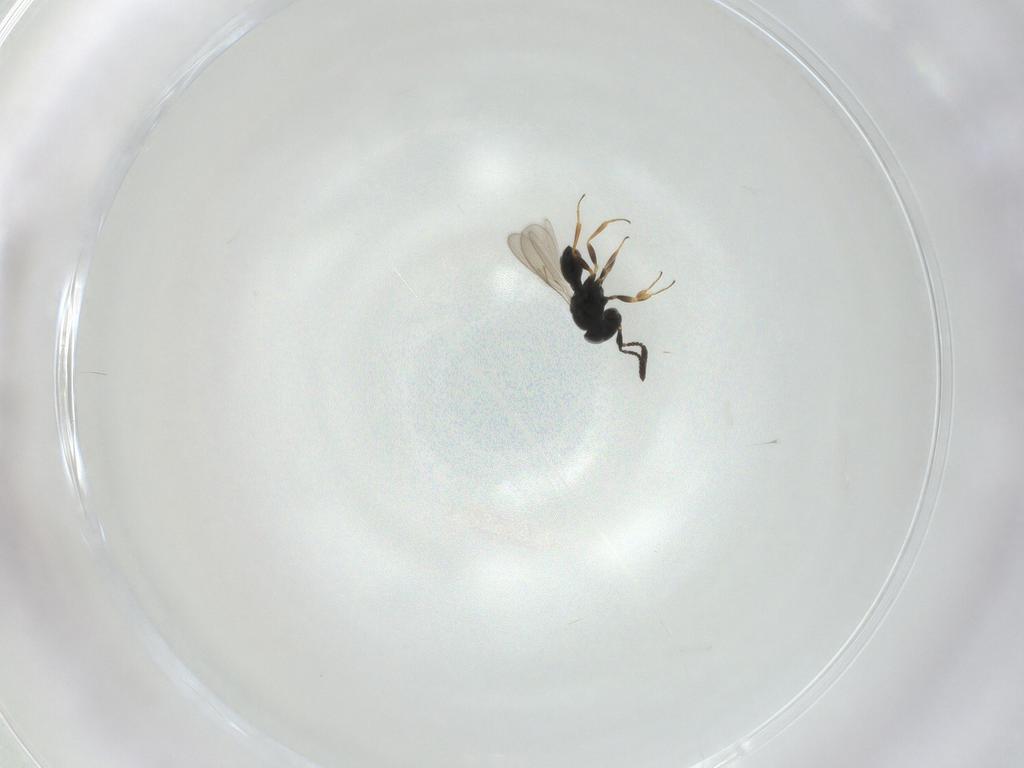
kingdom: Animalia
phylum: Arthropoda
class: Insecta
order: Hymenoptera
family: Scelionidae
